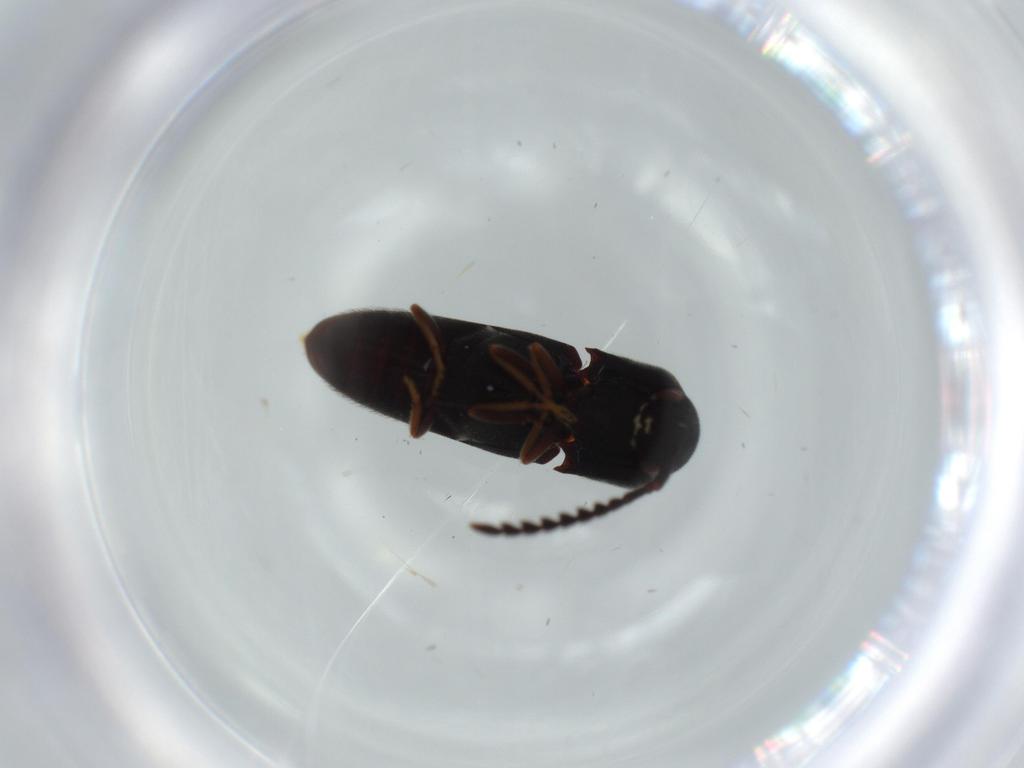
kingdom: Animalia
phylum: Arthropoda
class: Insecta
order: Coleoptera
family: Eucnemidae
